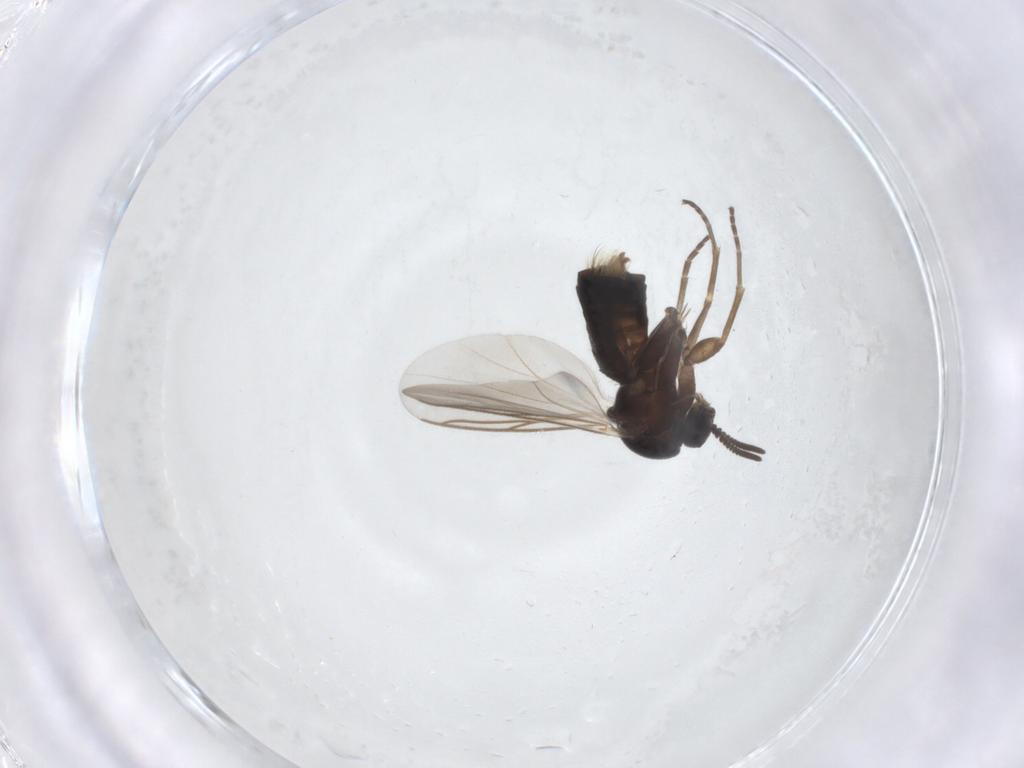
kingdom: Animalia
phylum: Arthropoda
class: Insecta
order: Diptera
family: Mycetophilidae
